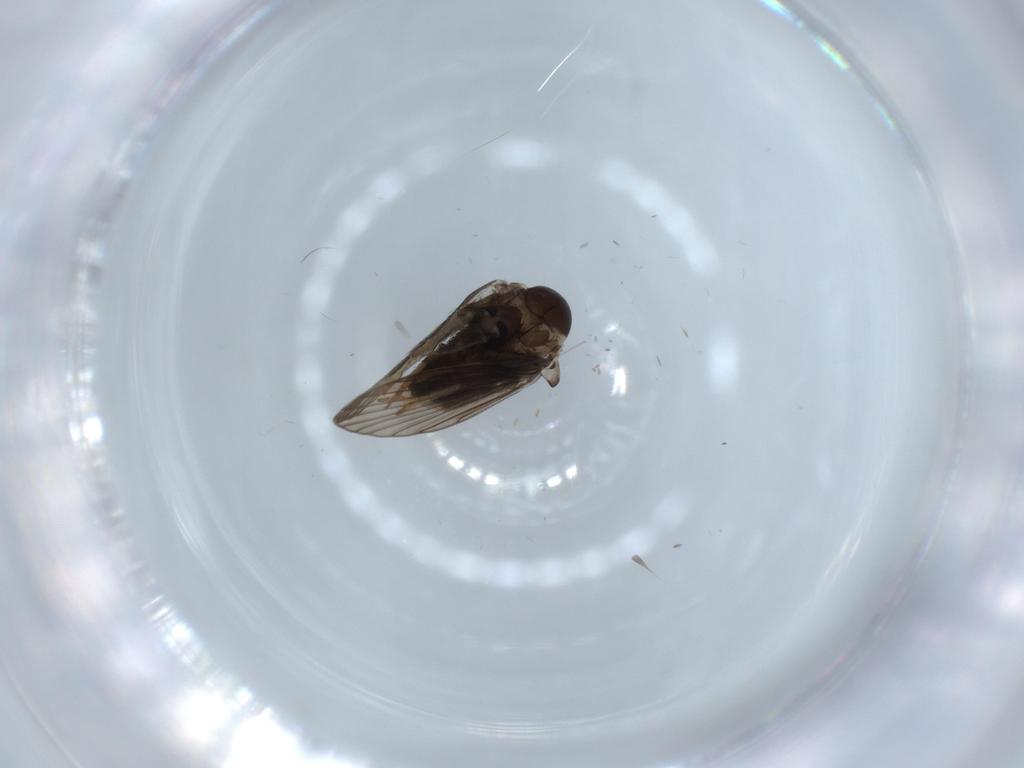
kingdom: Animalia
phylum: Arthropoda
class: Insecta
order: Diptera
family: Psychodidae
